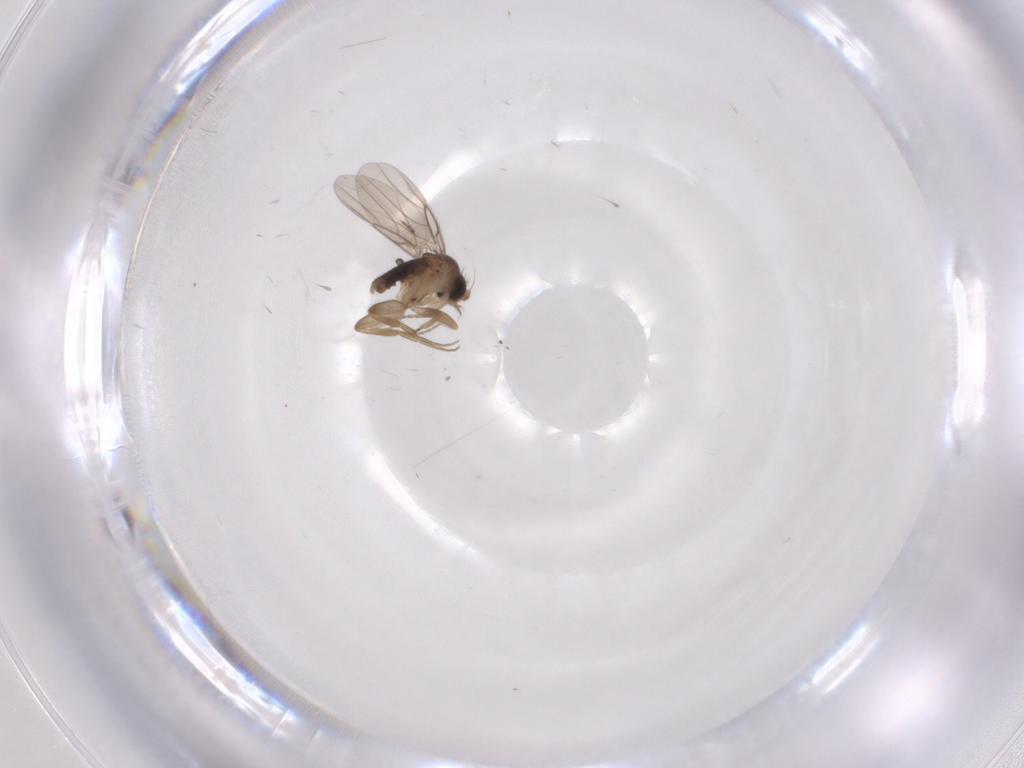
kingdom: Animalia
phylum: Arthropoda
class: Insecta
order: Diptera
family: Phoridae
